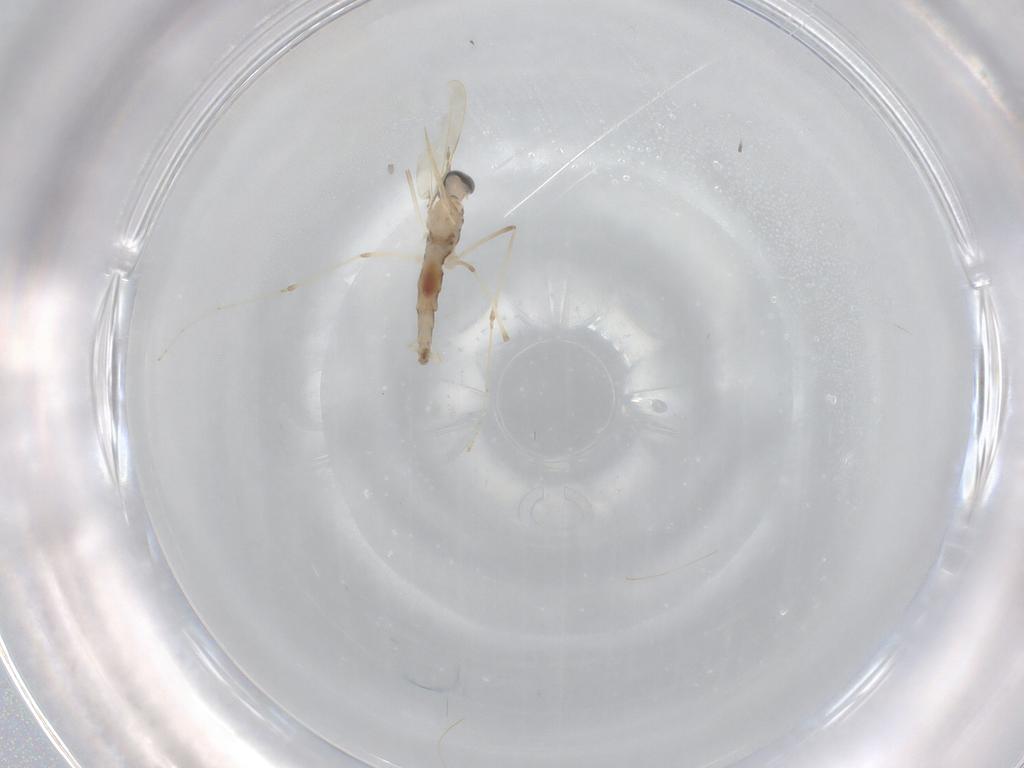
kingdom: Animalia
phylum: Arthropoda
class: Insecta
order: Diptera
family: Cecidomyiidae
